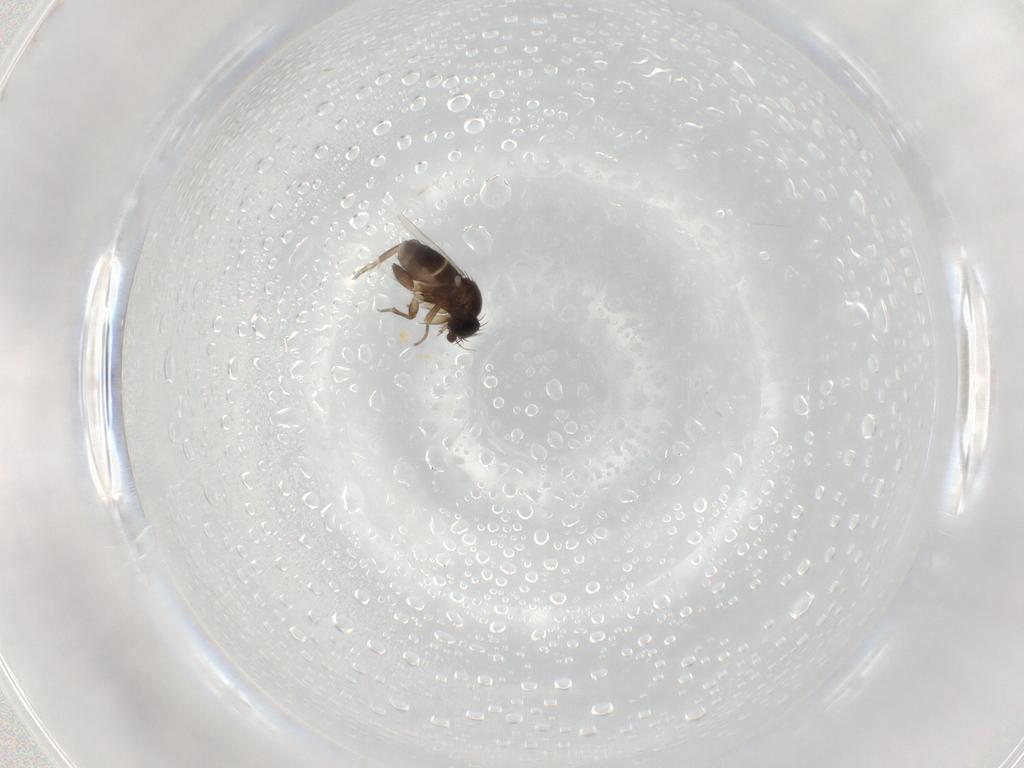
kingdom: Animalia
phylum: Arthropoda
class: Insecta
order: Diptera
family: Phoridae
